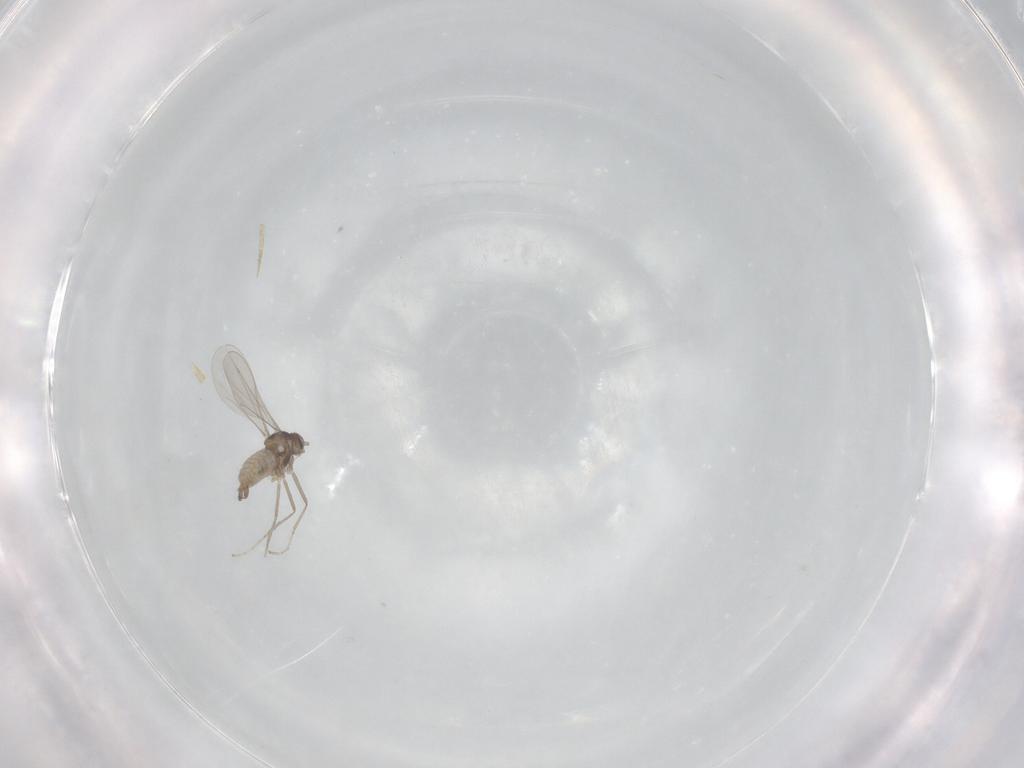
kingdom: Animalia
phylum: Arthropoda
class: Insecta
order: Diptera
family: Cecidomyiidae
